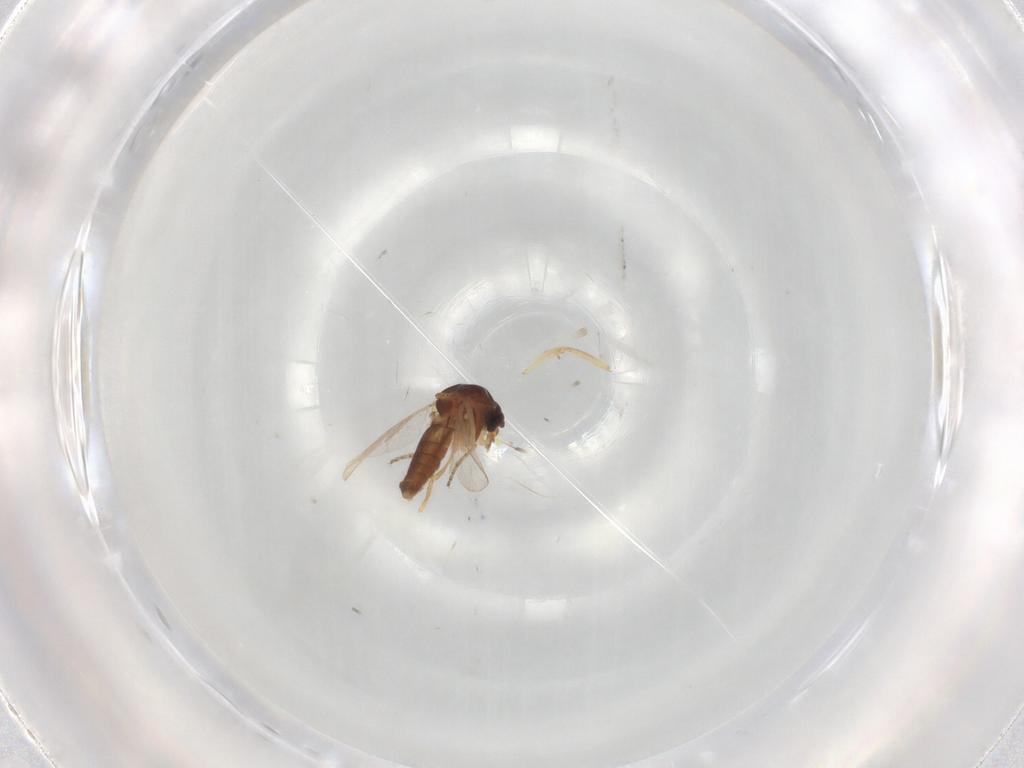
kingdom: Animalia
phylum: Arthropoda
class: Insecta
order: Diptera
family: Ceratopogonidae
